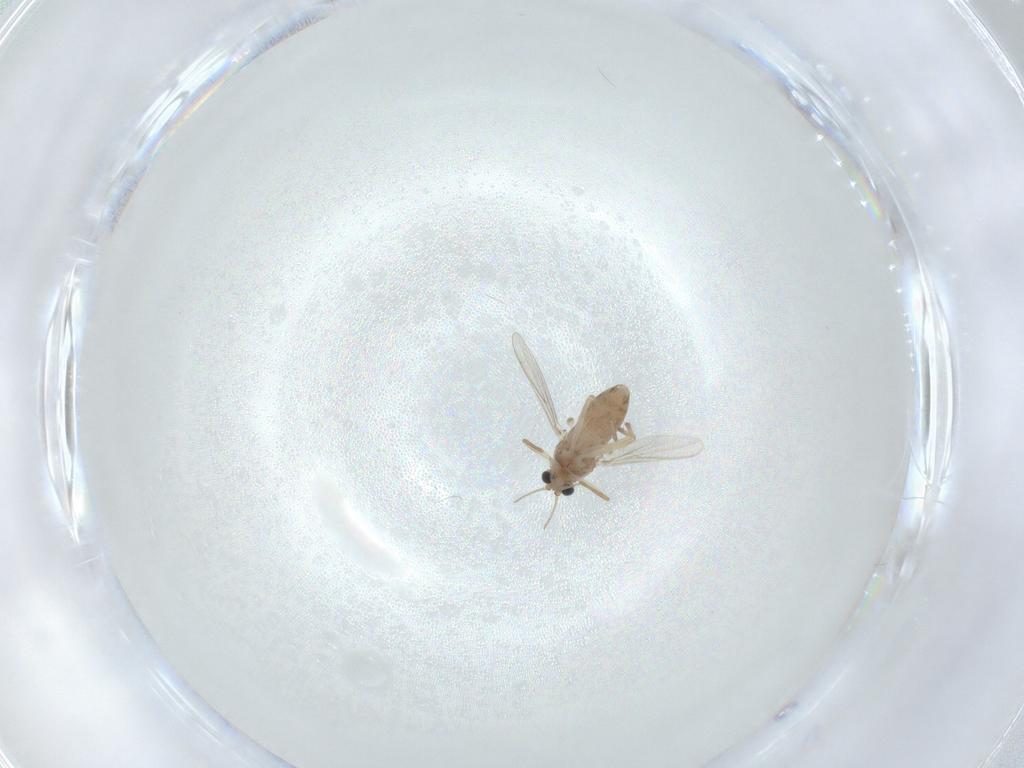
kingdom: Animalia
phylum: Arthropoda
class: Insecta
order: Diptera
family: Chironomidae
